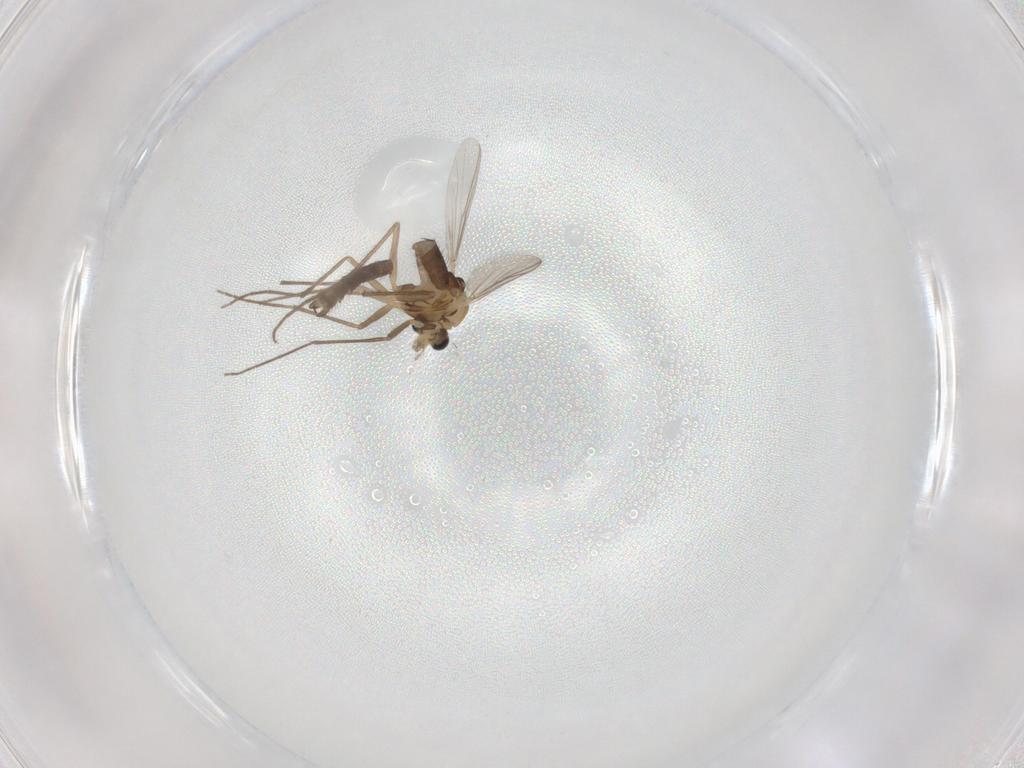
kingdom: Animalia
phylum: Arthropoda
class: Insecta
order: Diptera
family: Chironomidae
